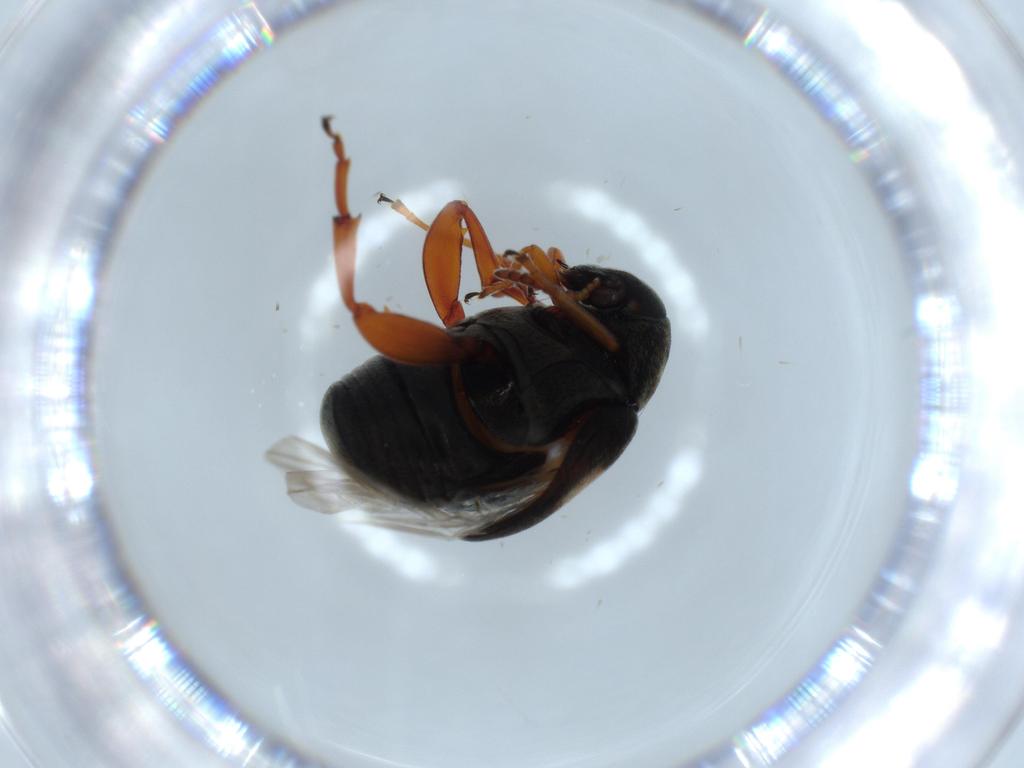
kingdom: Animalia
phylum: Arthropoda
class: Insecta
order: Coleoptera
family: Chrysomelidae
